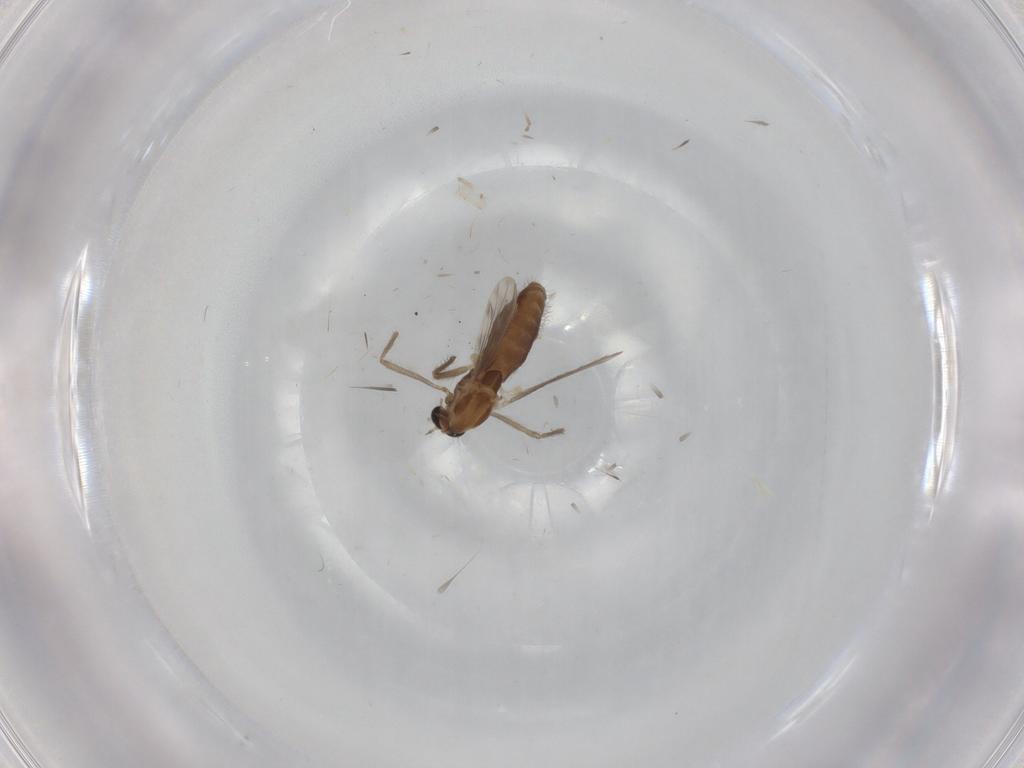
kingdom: Animalia
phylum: Arthropoda
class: Insecta
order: Diptera
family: Chironomidae
